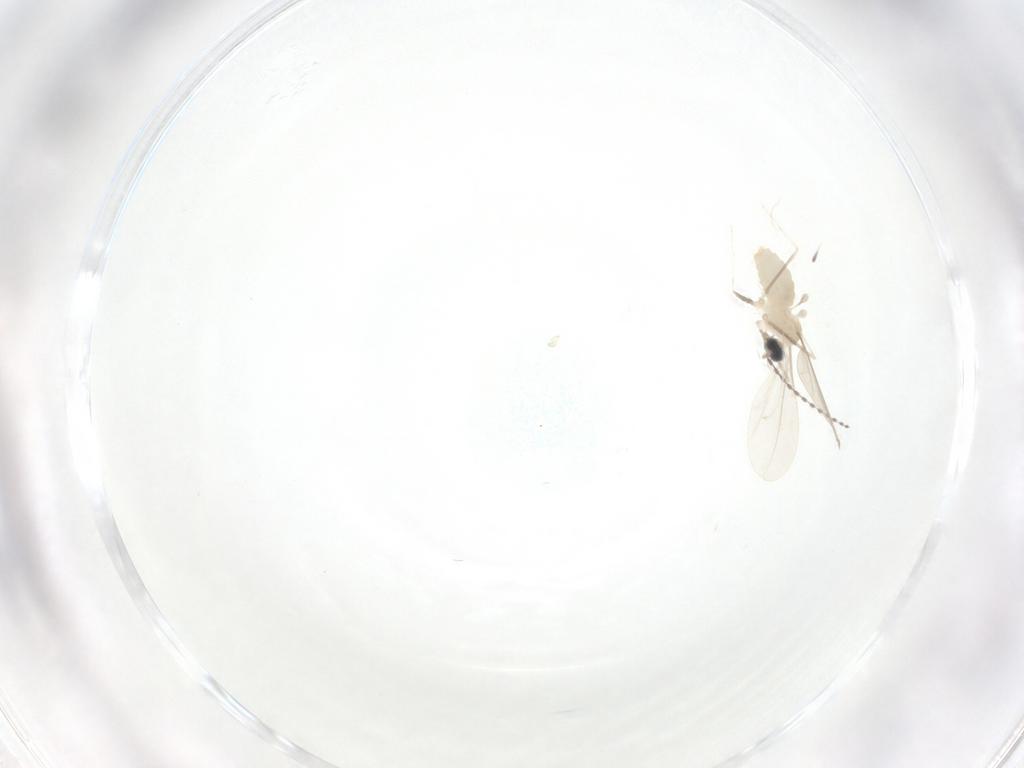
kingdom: Animalia
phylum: Arthropoda
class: Insecta
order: Diptera
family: Cecidomyiidae
